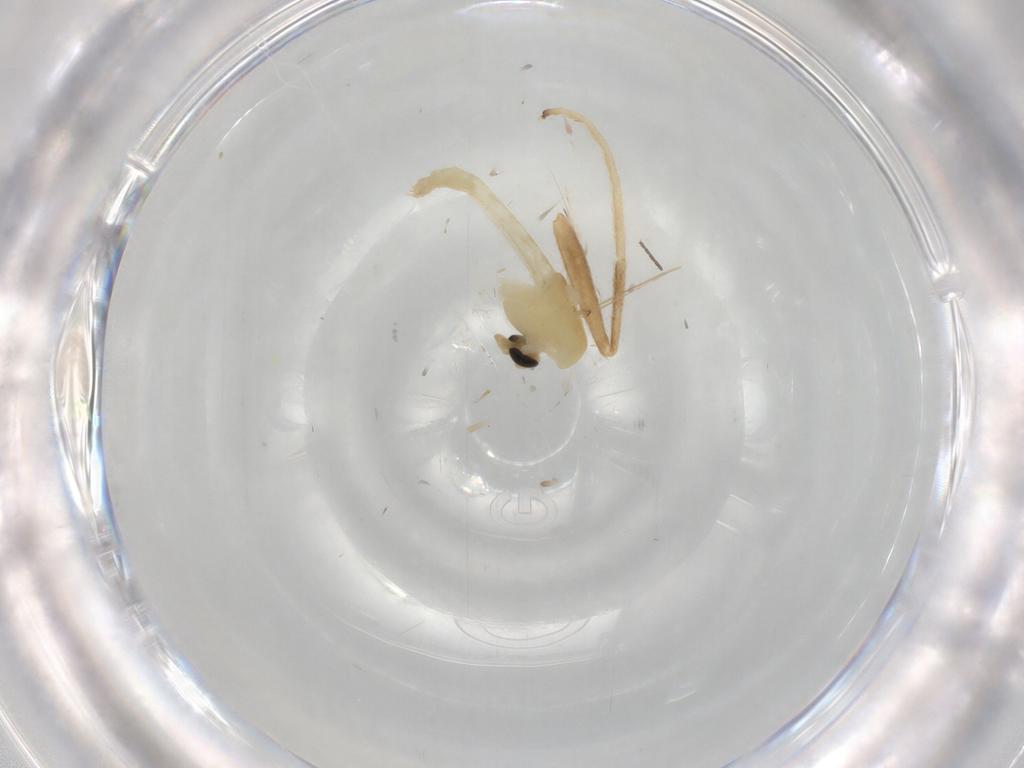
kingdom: Animalia
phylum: Arthropoda
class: Insecta
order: Diptera
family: Chironomidae
